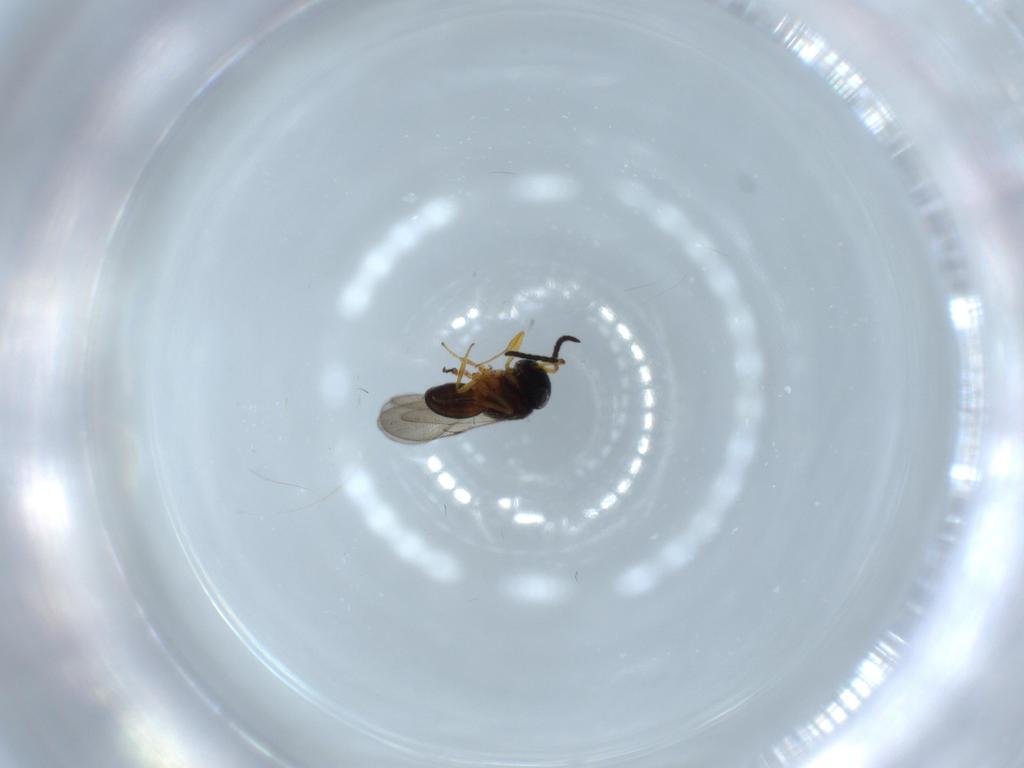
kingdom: Animalia
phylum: Arthropoda
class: Insecta
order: Hymenoptera
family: Scelionidae
